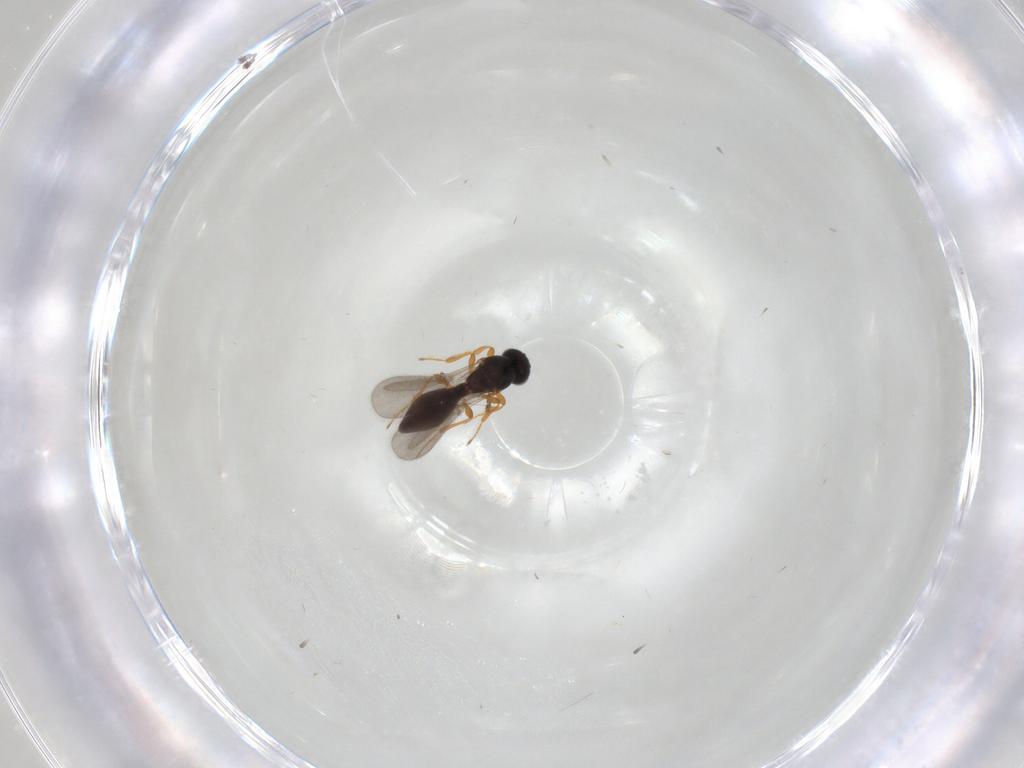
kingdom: Animalia
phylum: Arthropoda
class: Insecta
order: Hymenoptera
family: Platygastridae
